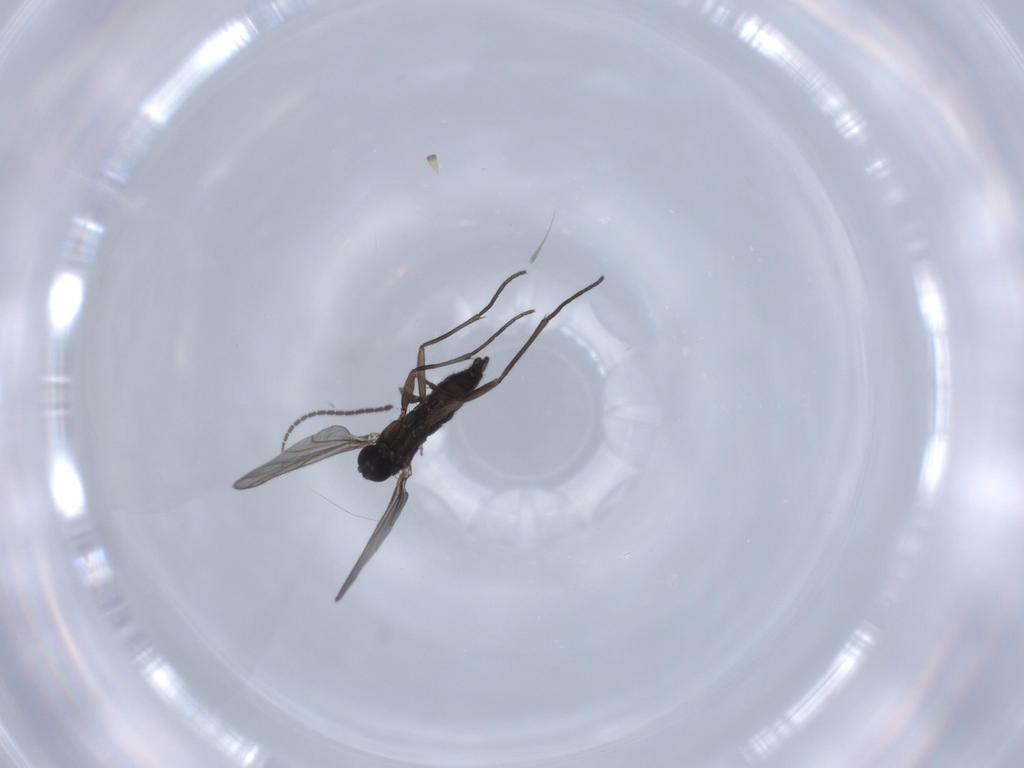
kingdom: Animalia
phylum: Arthropoda
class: Insecta
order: Diptera
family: Sciaridae
